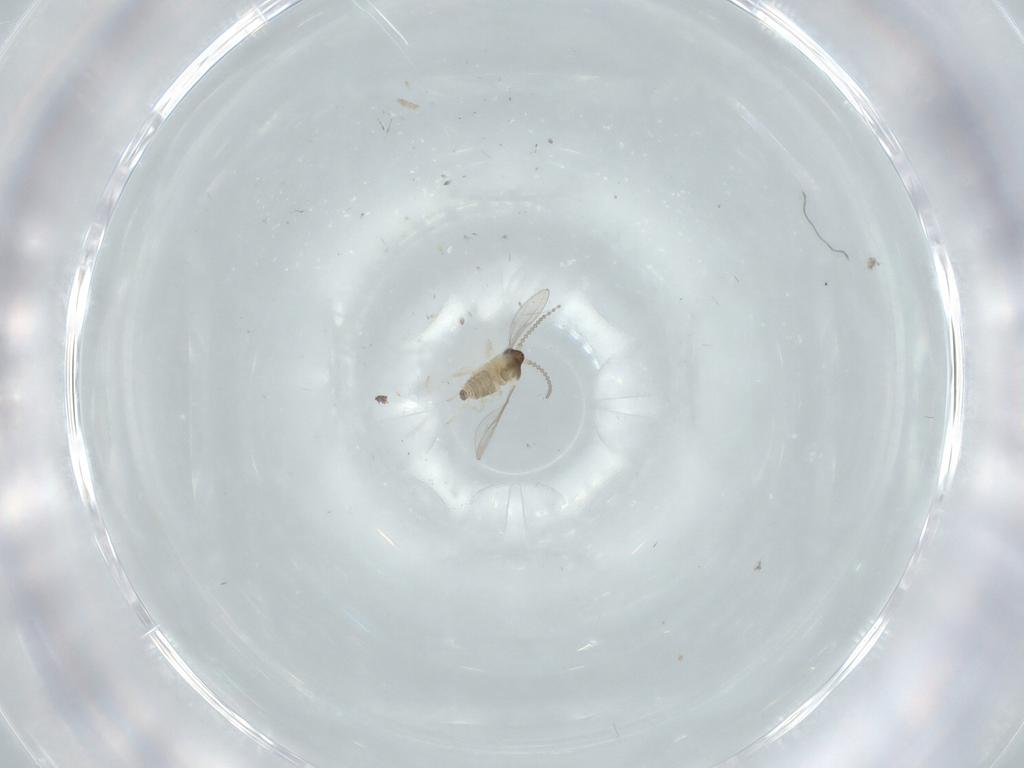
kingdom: Animalia
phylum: Arthropoda
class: Insecta
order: Diptera
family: Cecidomyiidae
